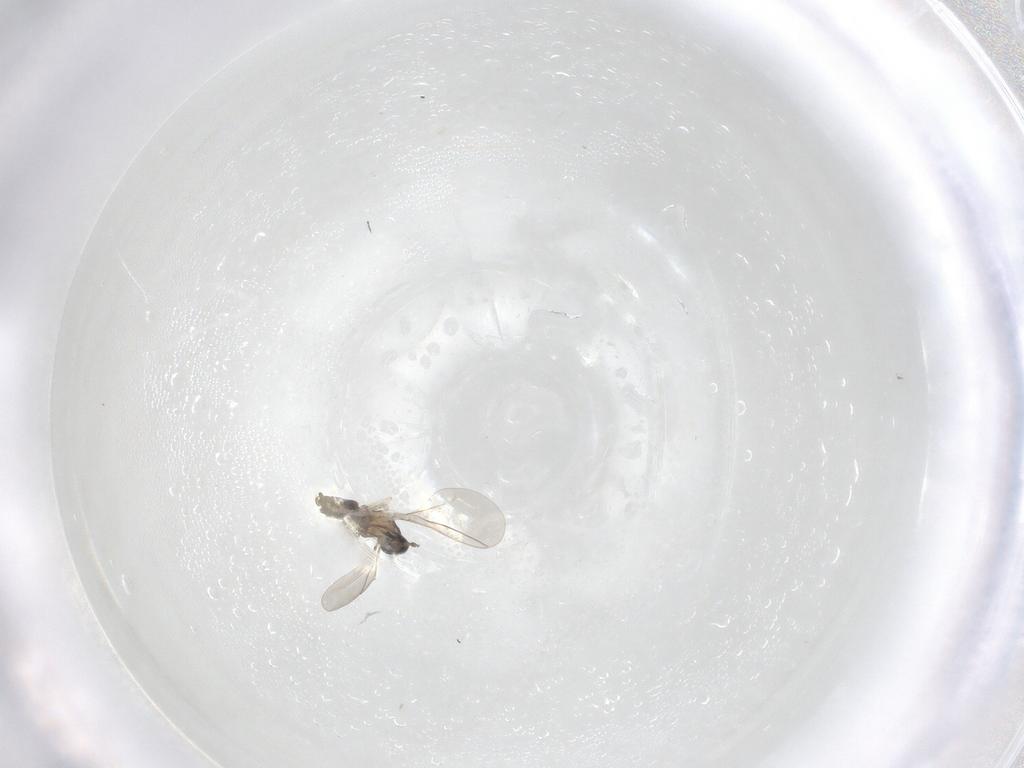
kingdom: Animalia
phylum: Arthropoda
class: Insecta
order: Diptera
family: Cecidomyiidae
